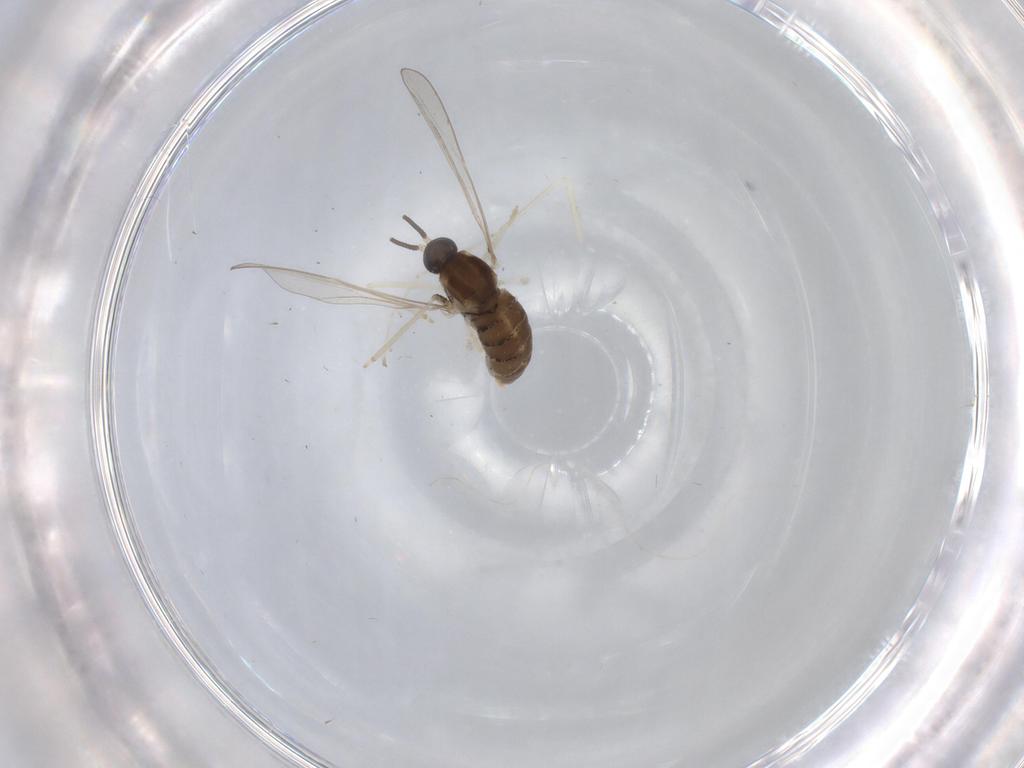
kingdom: Animalia
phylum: Arthropoda
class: Insecta
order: Diptera
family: Cecidomyiidae
